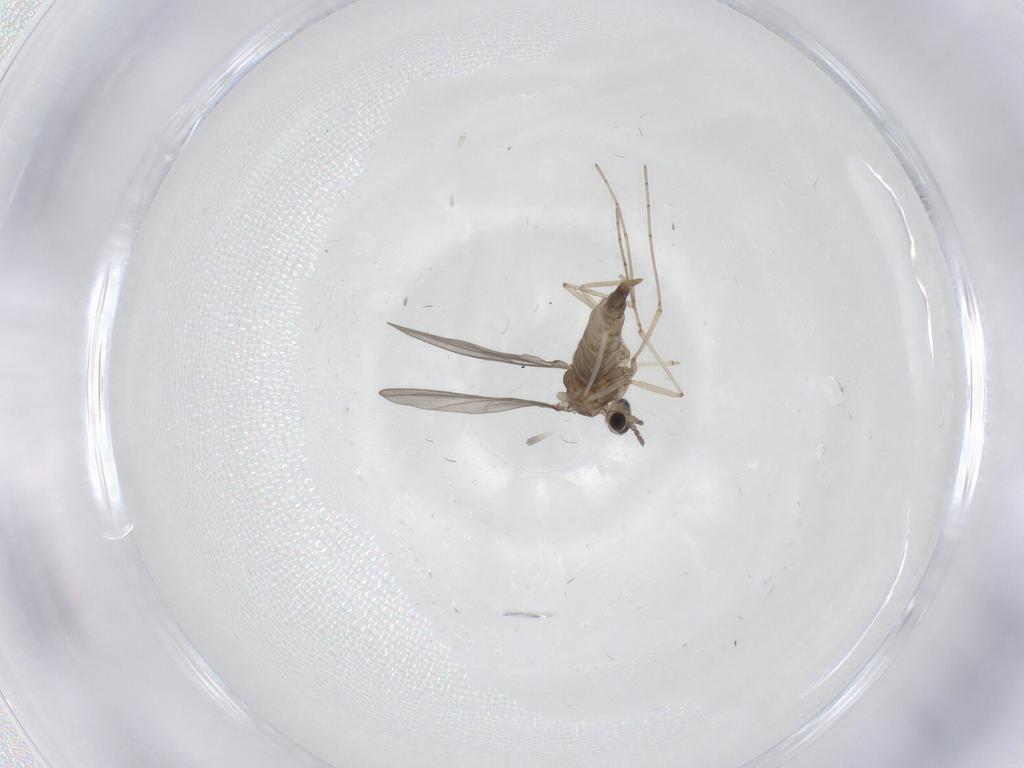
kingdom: Animalia
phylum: Arthropoda
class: Insecta
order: Diptera
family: Cecidomyiidae
